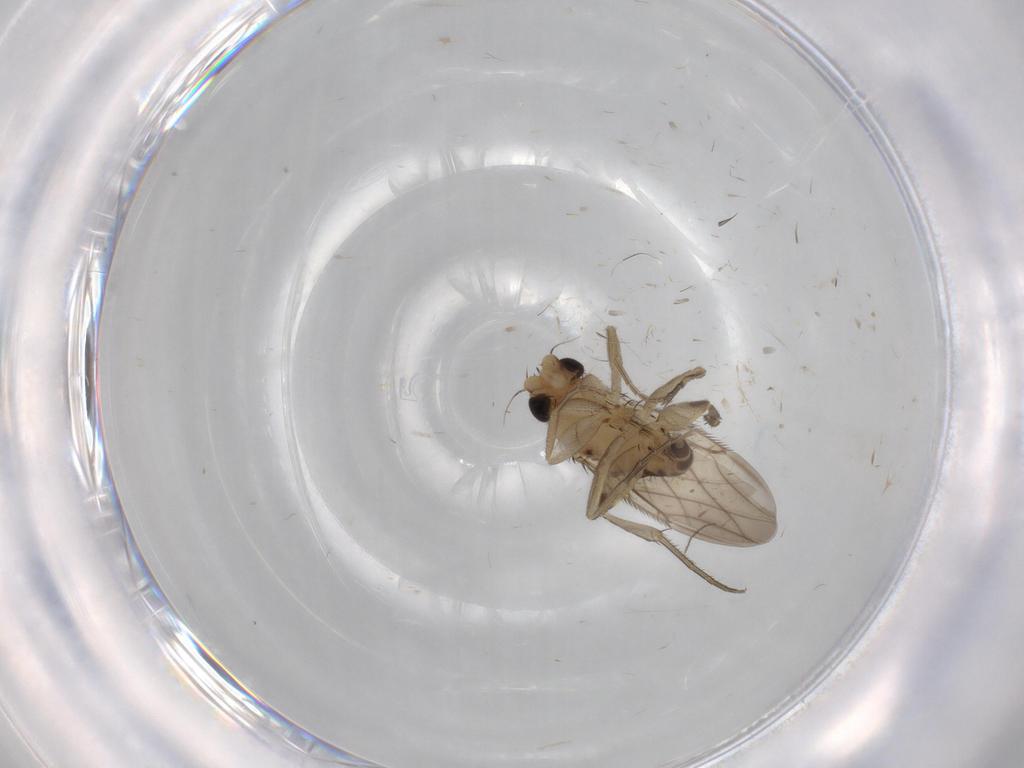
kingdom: Animalia
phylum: Arthropoda
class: Insecta
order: Diptera
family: Phoridae
